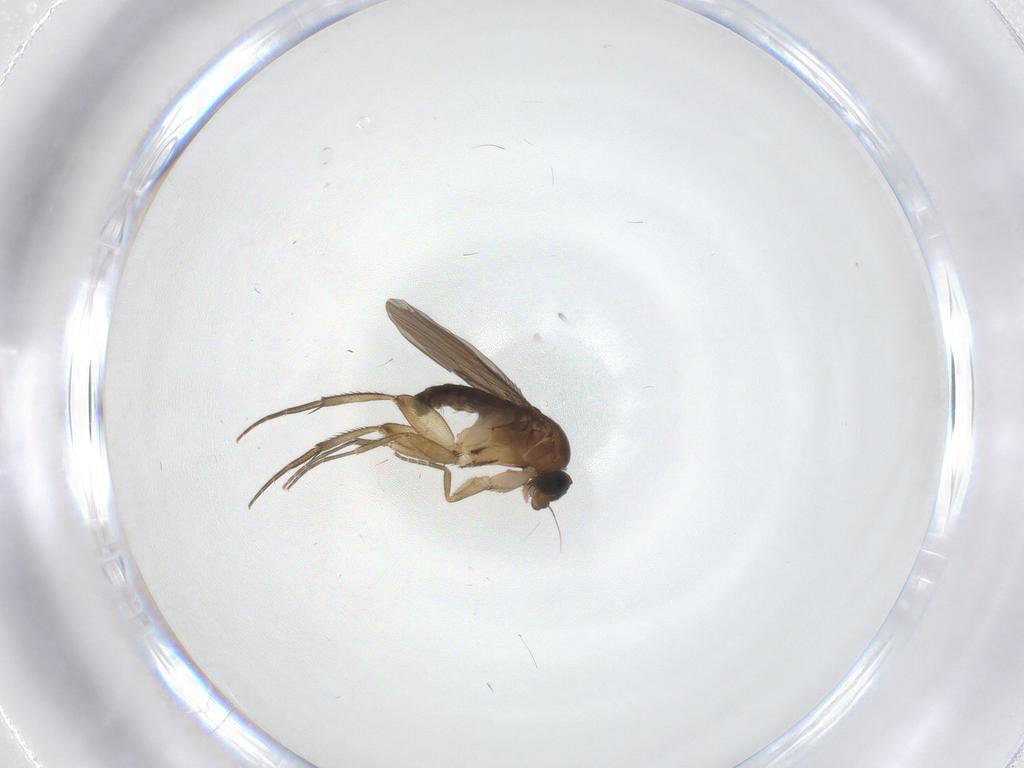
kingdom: Animalia
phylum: Arthropoda
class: Insecta
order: Diptera
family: Phoridae
